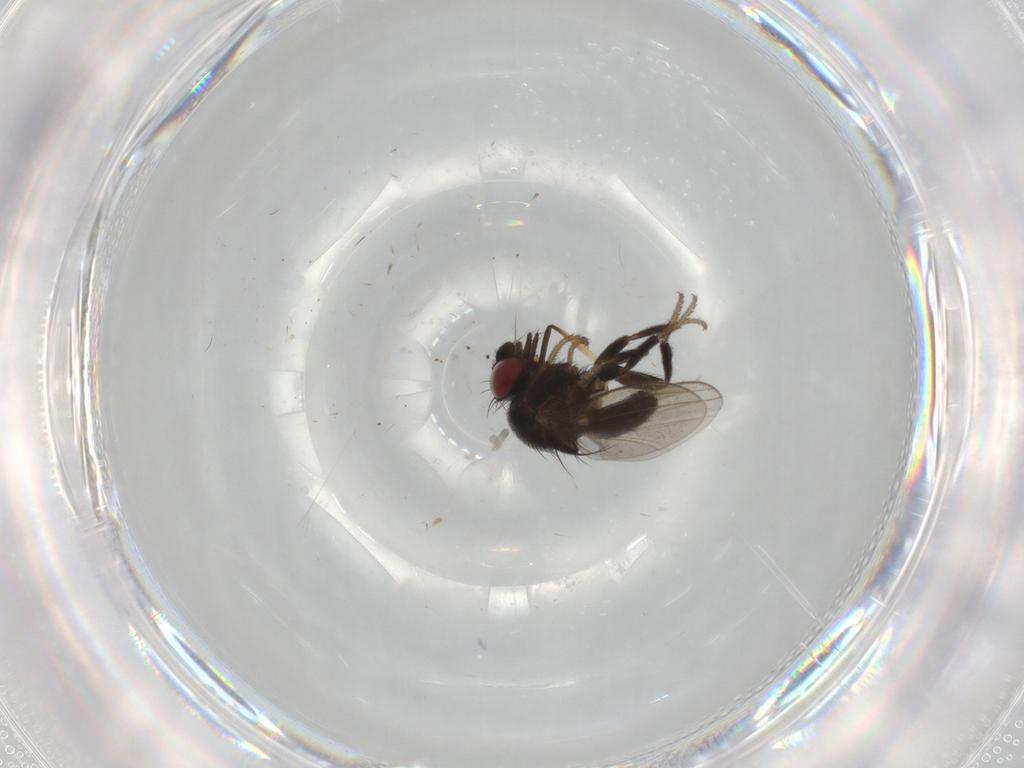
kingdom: Animalia
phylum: Arthropoda
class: Insecta
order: Diptera
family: Milichiidae
